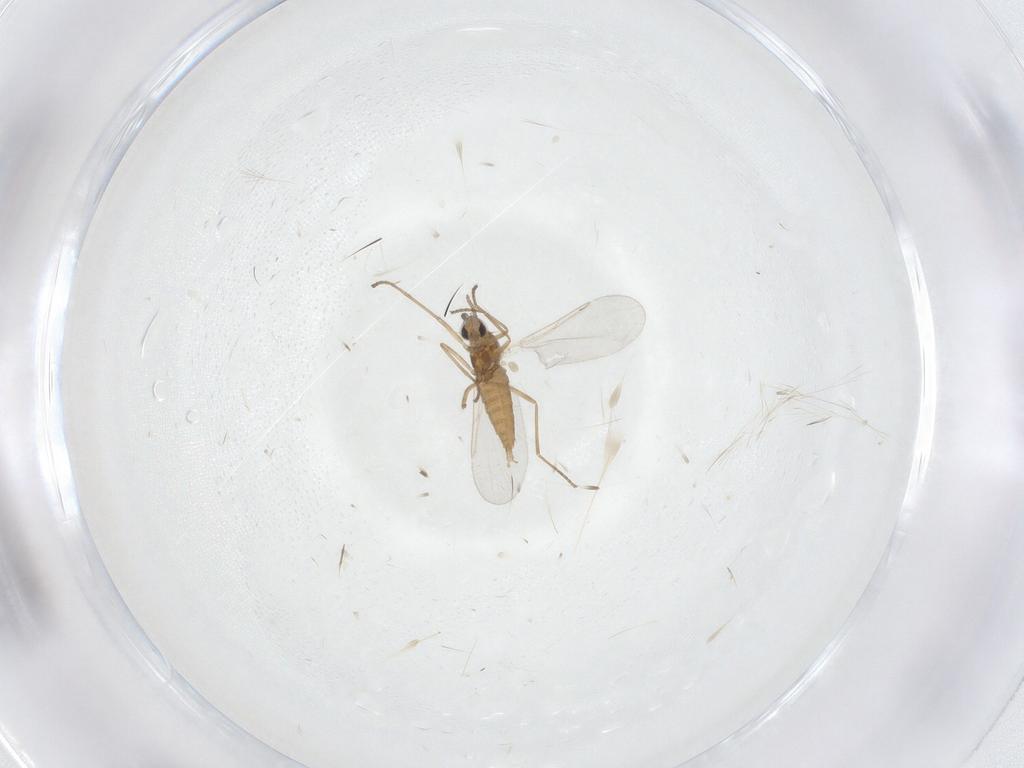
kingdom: Animalia
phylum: Arthropoda
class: Insecta
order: Diptera
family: Cecidomyiidae
